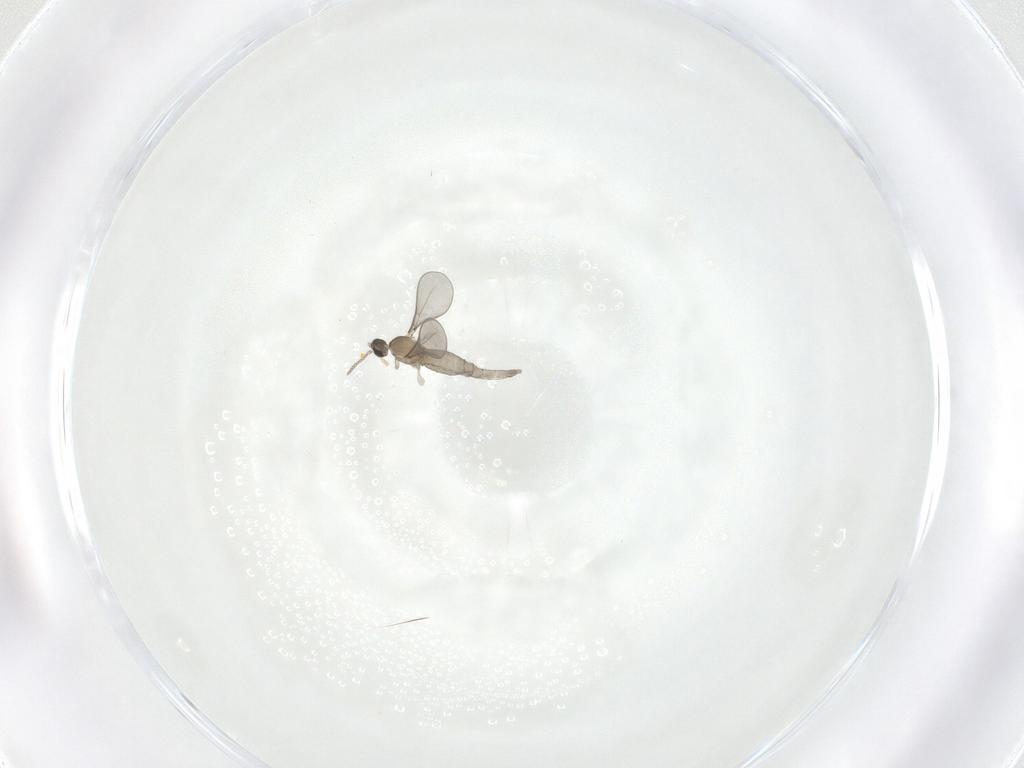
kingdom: Animalia
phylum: Arthropoda
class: Insecta
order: Diptera
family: Cecidomyiidae
